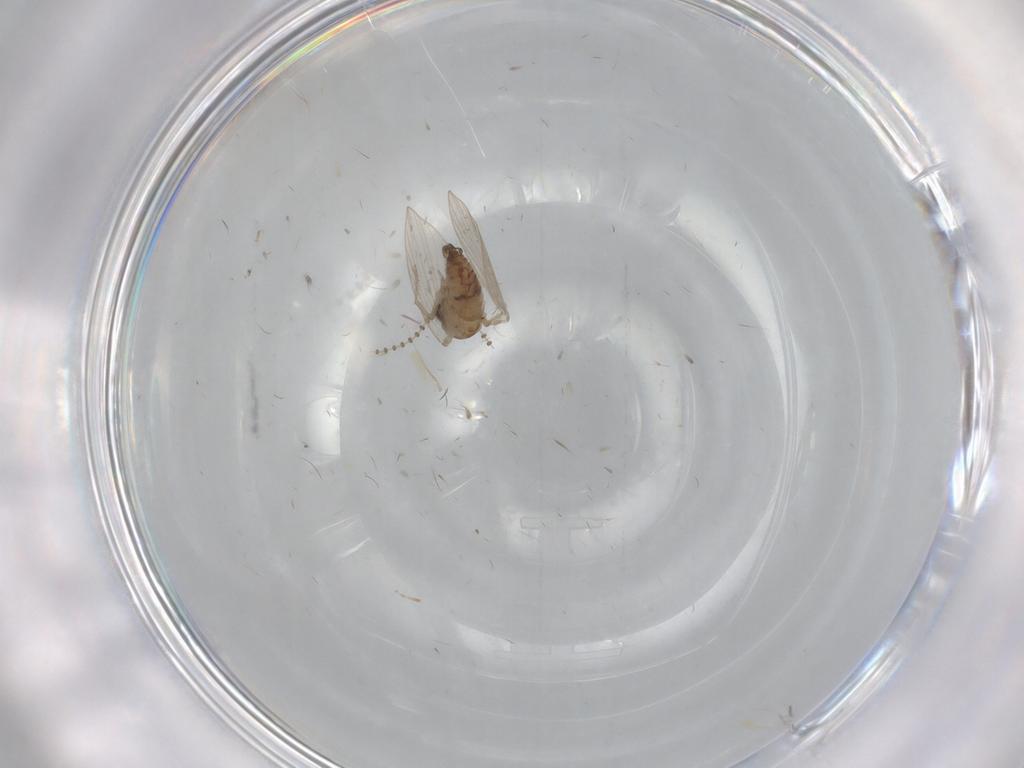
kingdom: Animalia
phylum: Arthropoda
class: Insecta
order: Diptera
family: Psychodidae
